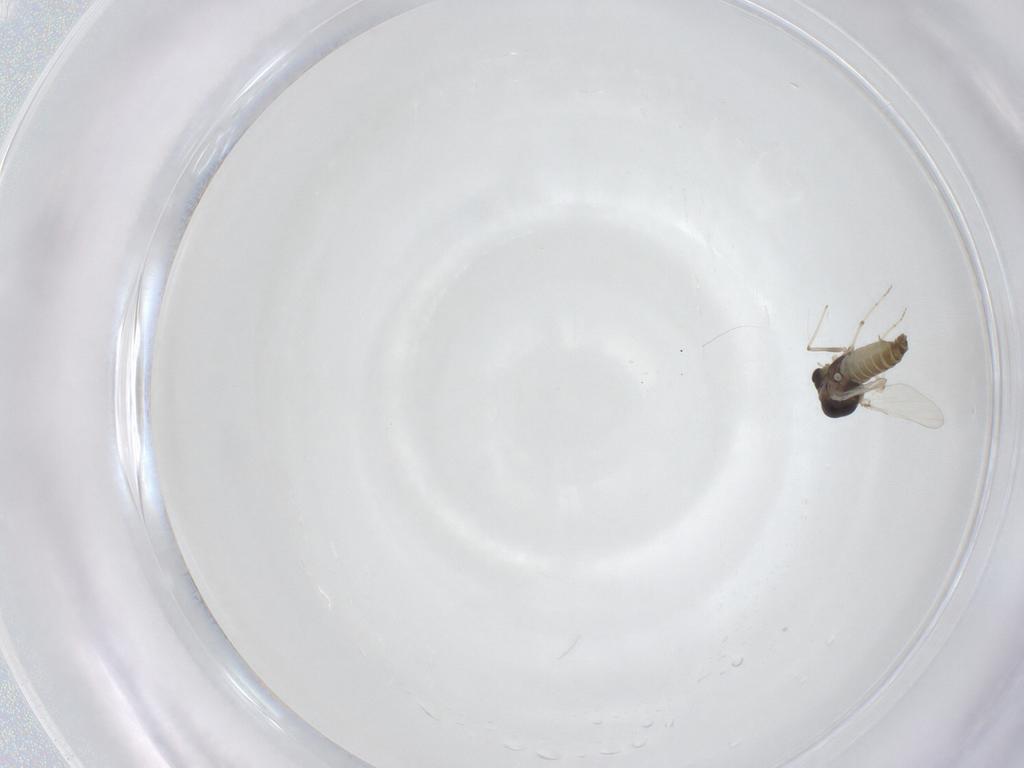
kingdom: Animalia
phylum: Arthropoda
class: Insecta
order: Diptera
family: Chironomidae
